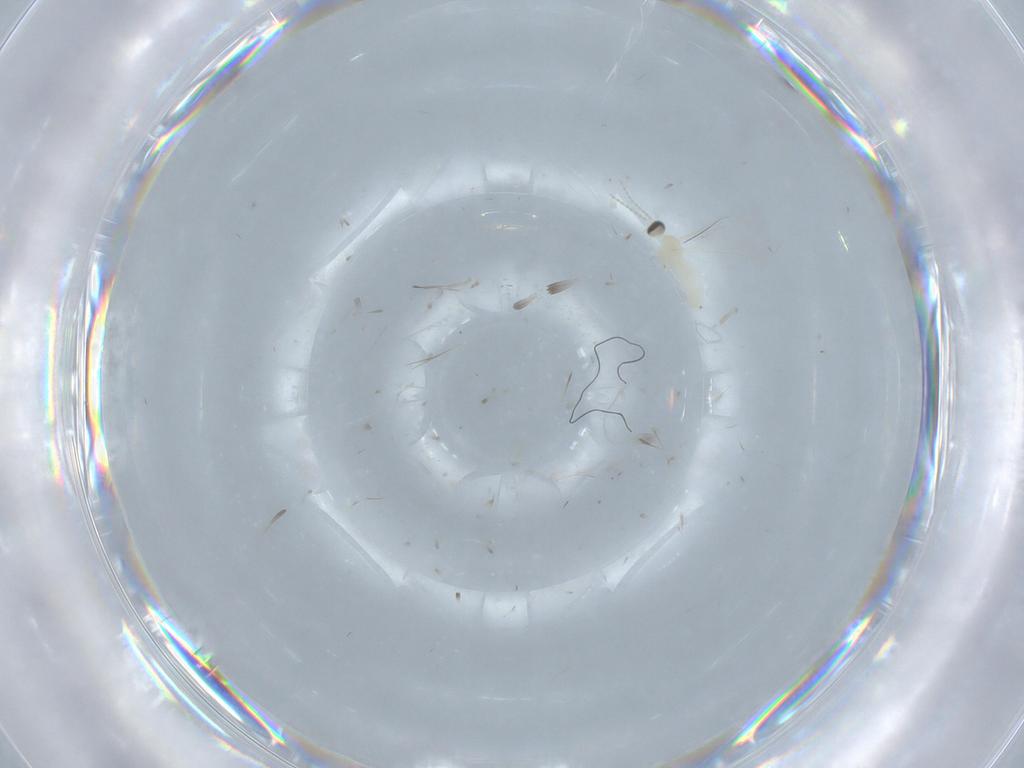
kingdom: Animalia
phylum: Arthropoda
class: Insecta
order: Diptera
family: Cecidomyiidae
